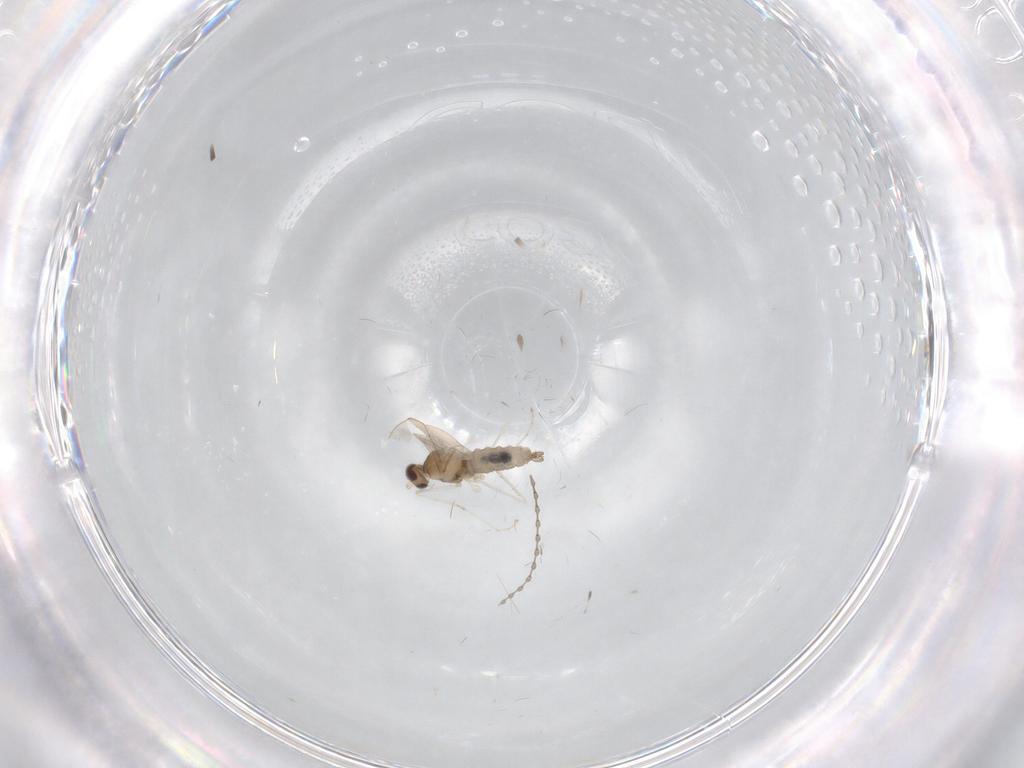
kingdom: Animalia
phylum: Arthropoda
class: Insecta
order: Diptera
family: Cecidomyiidae
